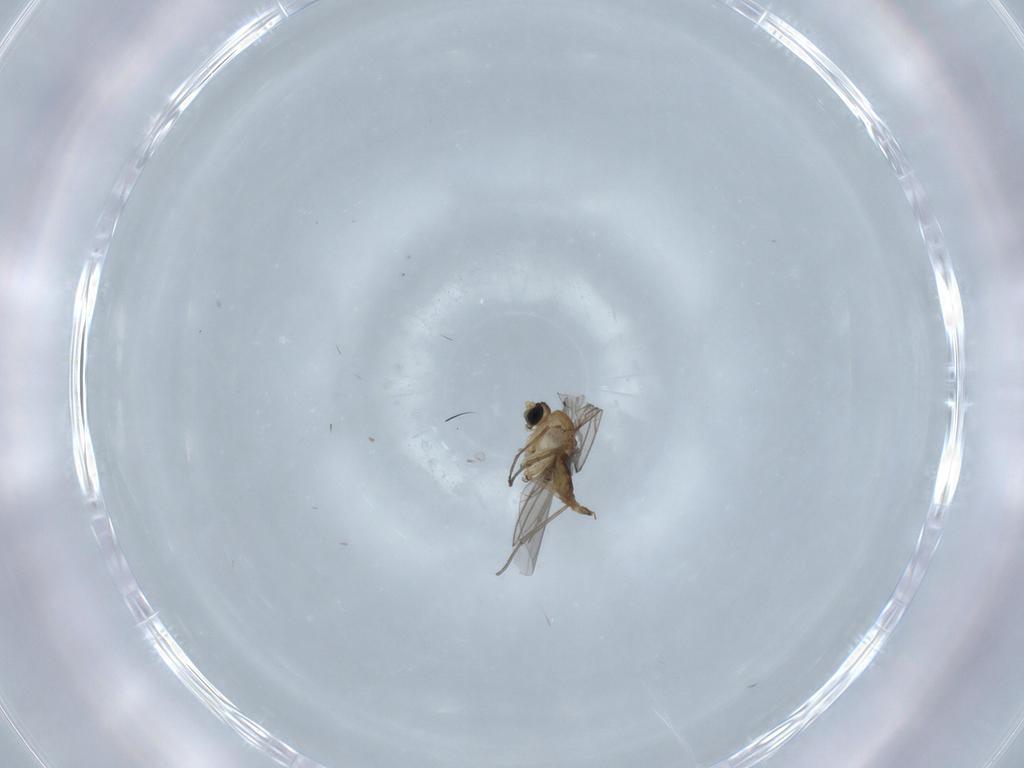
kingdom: Animalia
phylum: Arthropoda
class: Insecta
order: Diptera
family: Sciaridae
